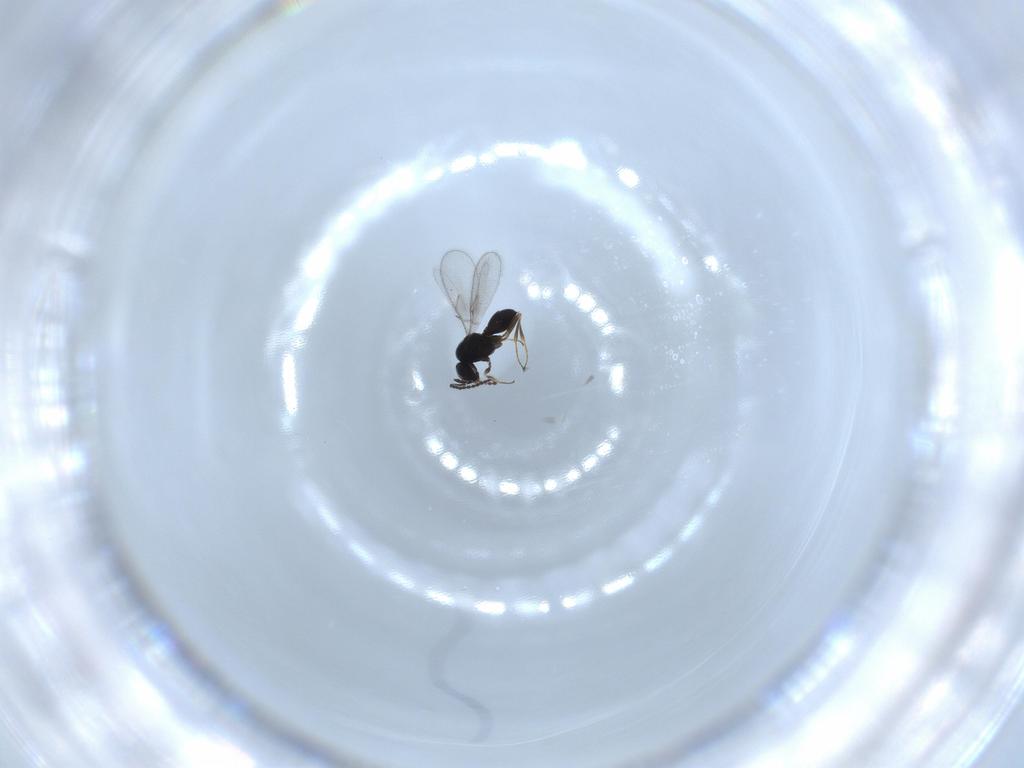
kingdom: Animalia
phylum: Arthropoda
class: Insecta
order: Hymenoptera
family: Scelionidae
